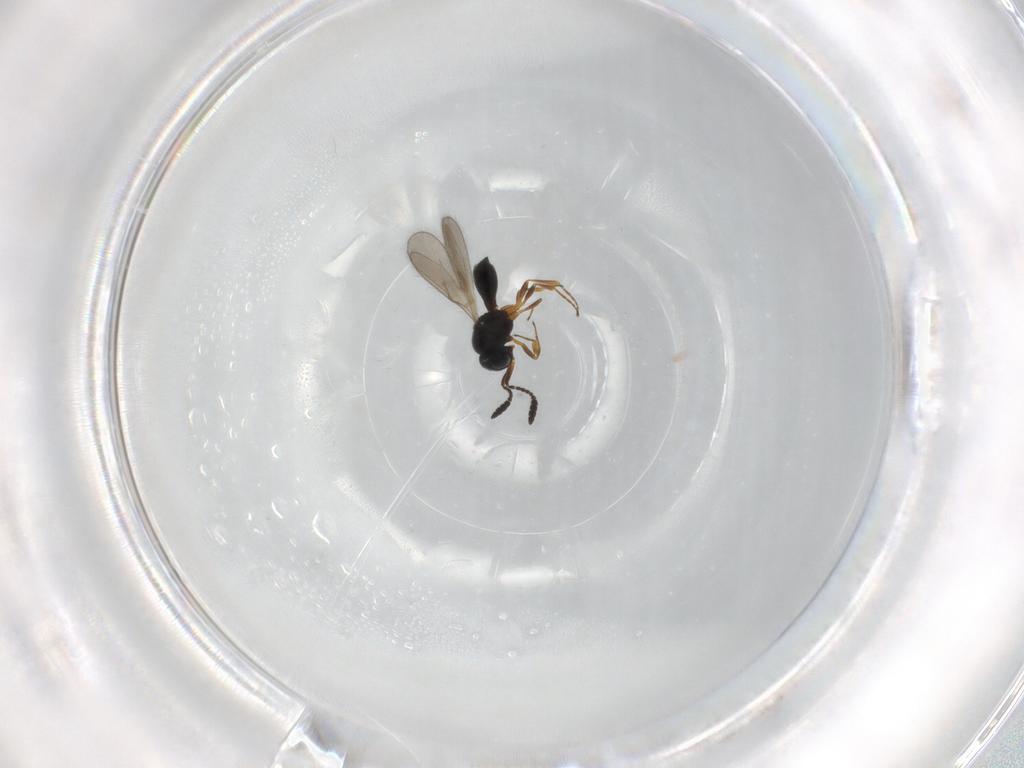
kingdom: Animalia
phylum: Arthropoda
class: Insecta
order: Hymenoptera
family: Scelionidae
